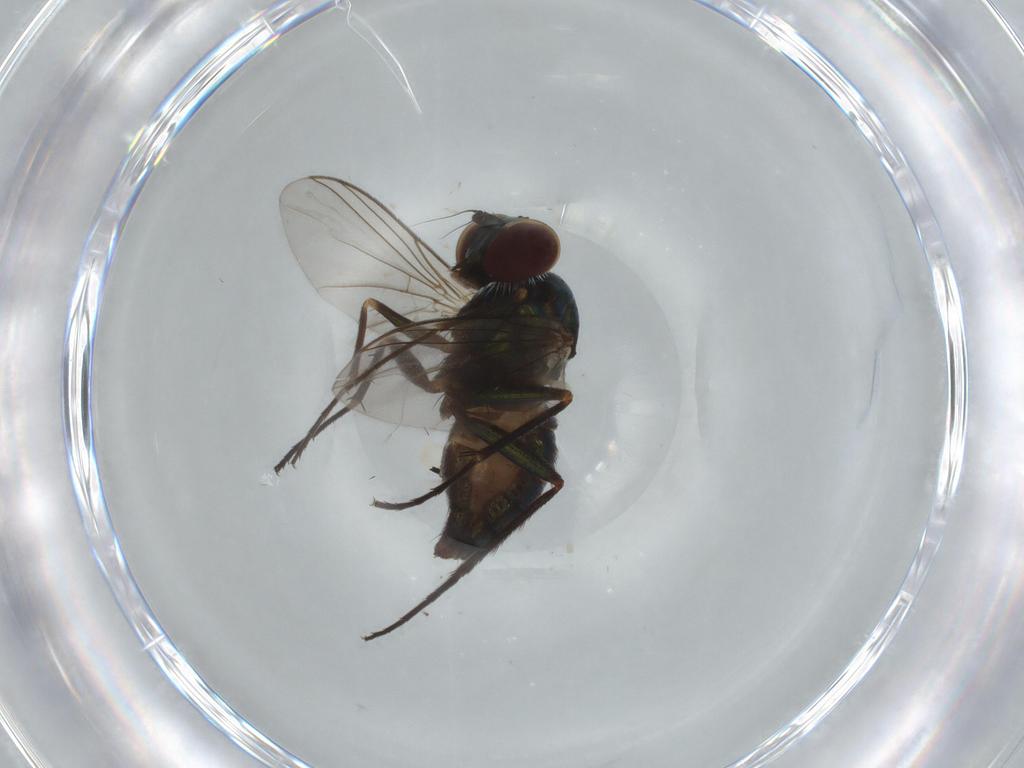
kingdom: Animalia
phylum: Arthropoda
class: Insecta
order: Diptera
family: Dolichopodidae
